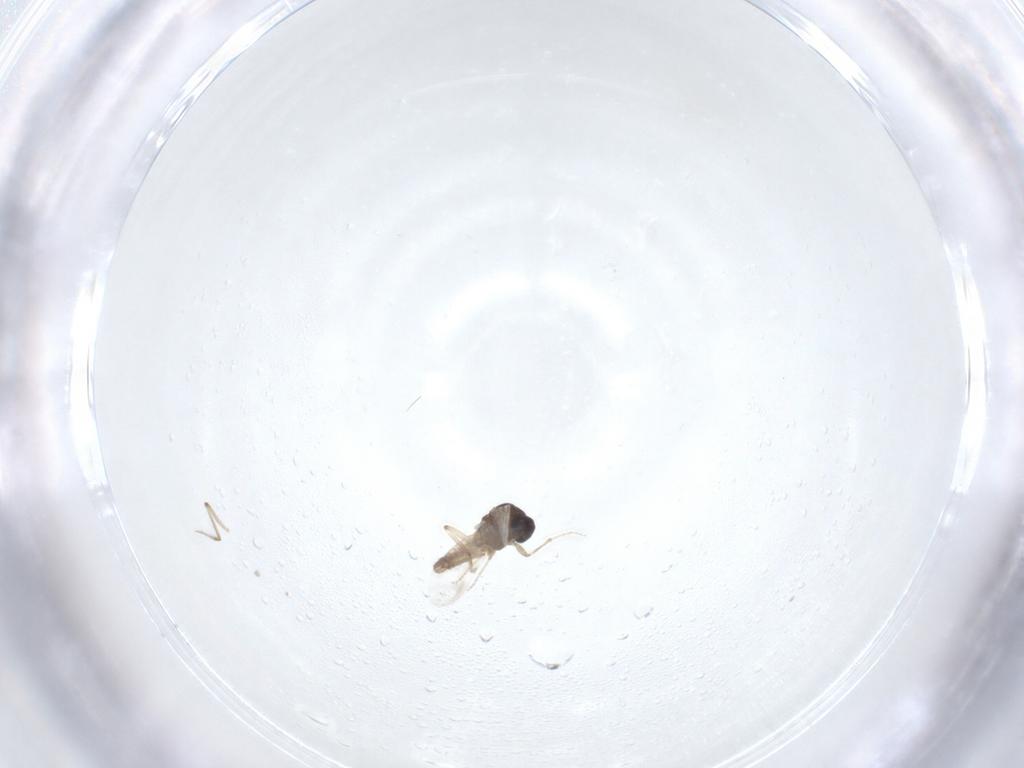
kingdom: Animalia
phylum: Arthropoda
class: Insecta
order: Diptera
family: Ceratopogonidae
